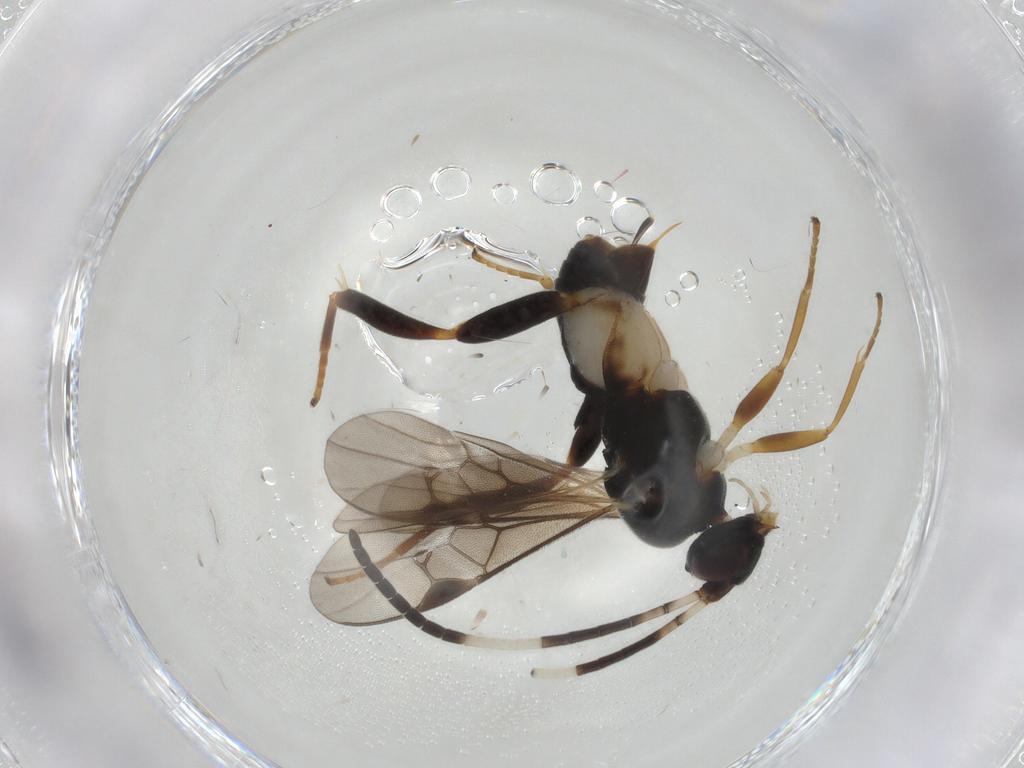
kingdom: Animalia
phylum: Arthropoda
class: Insecta
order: Hymenoptera
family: Braconidae
